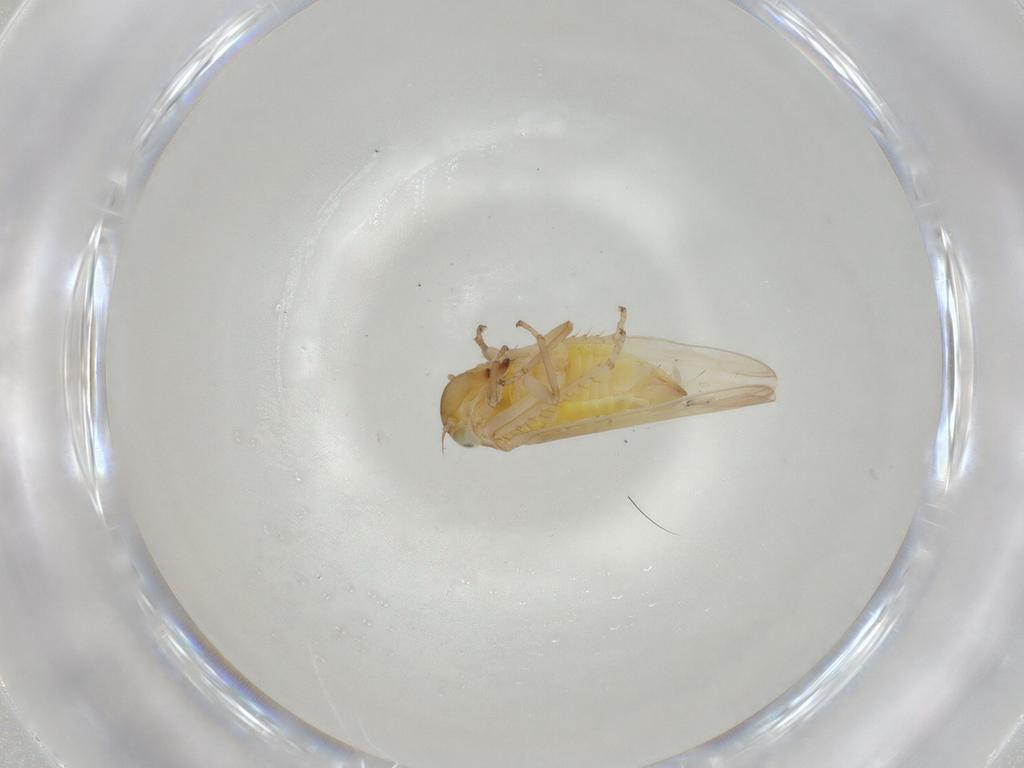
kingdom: Animalia
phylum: Arthropoda
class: Insecta
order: Hemiptera
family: Cicadellidae
